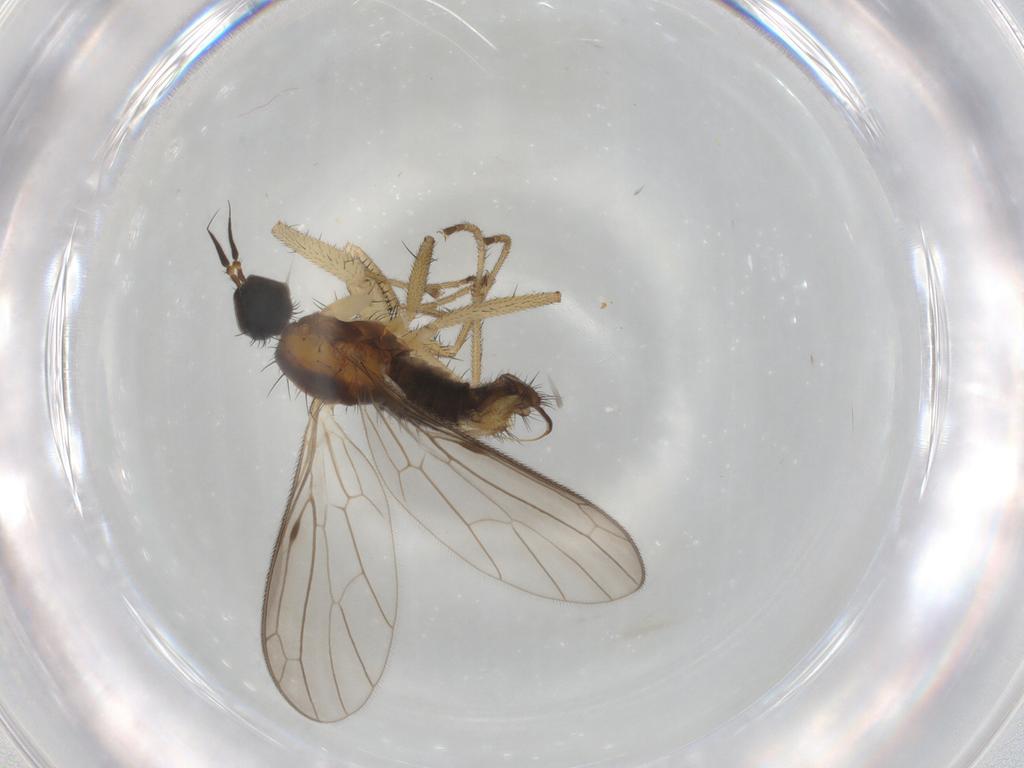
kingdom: Animalia
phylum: Arthropoda
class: Insecta
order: Diptera
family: Empididae
